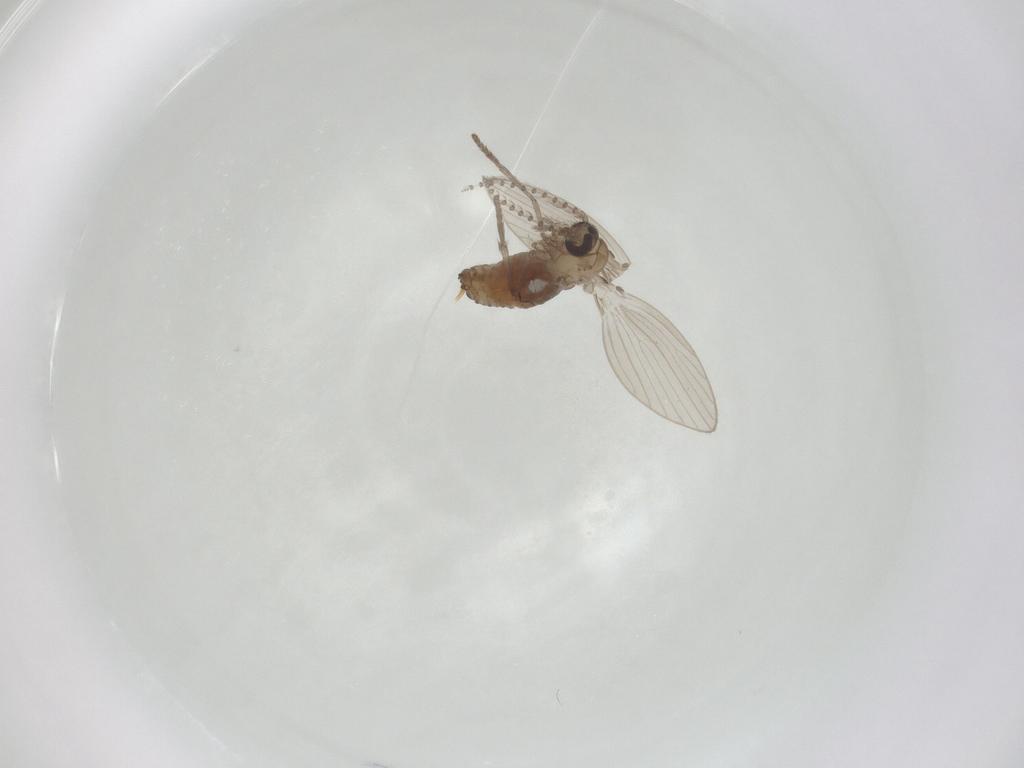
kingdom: Animalia
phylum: Arthropoda
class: Insecta
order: Diptera
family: Psychodidae
